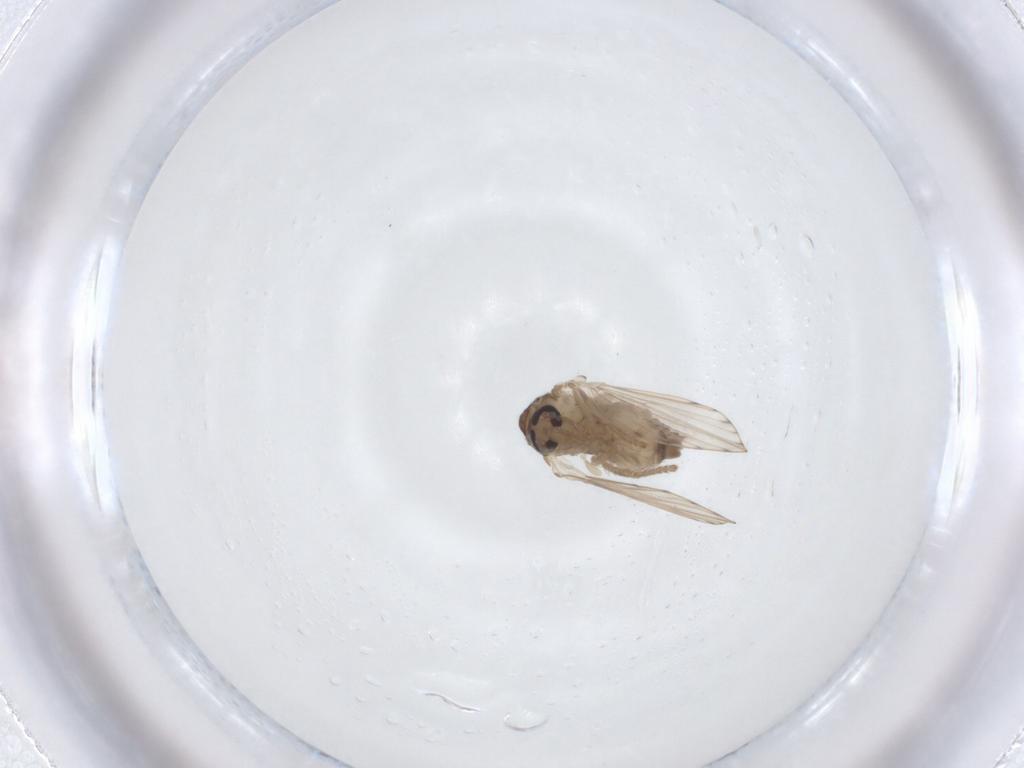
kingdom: Animalia
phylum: Arthropoda
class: Insecta
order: Diptera
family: Psychodidae
